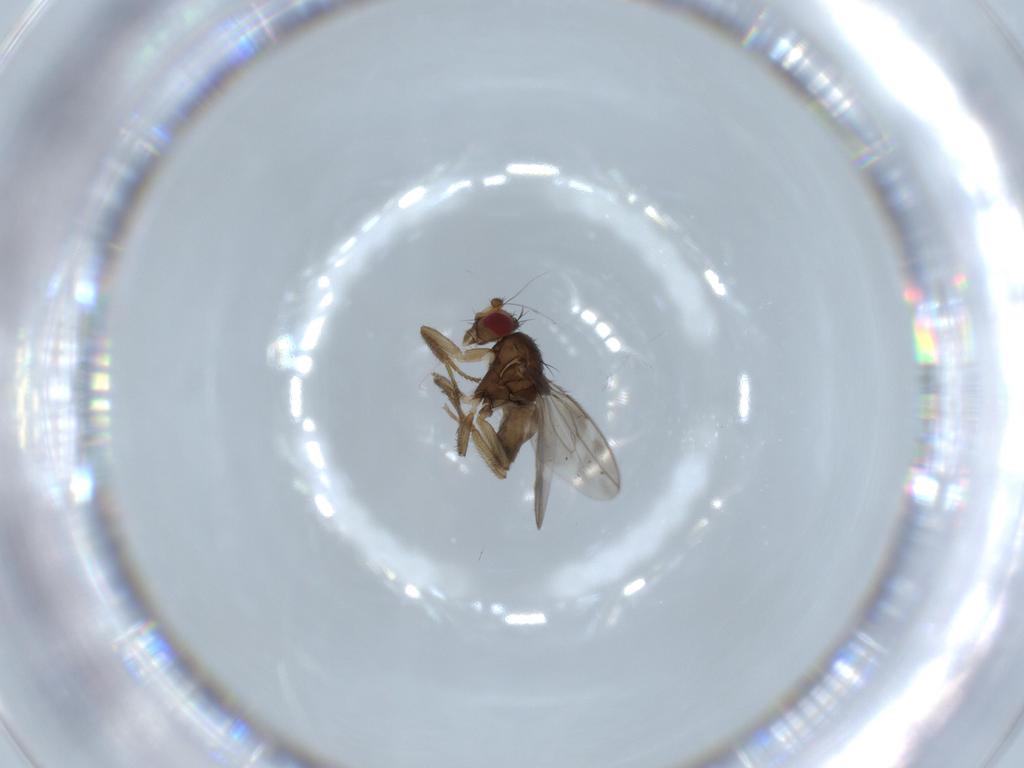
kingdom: Animalia
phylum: Arthropoda
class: Insecta
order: Diptera
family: Sphaeroceridae
